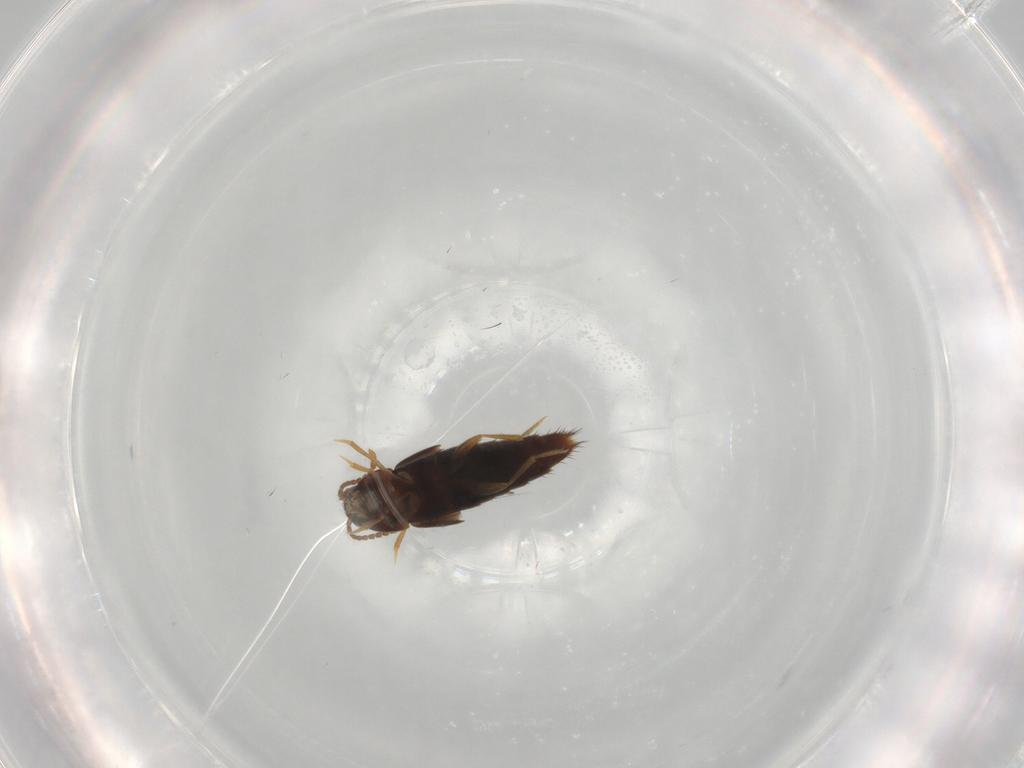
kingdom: Animalia
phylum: Arthropoda
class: Insecta
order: Coleoptera
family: Staphylinidae
